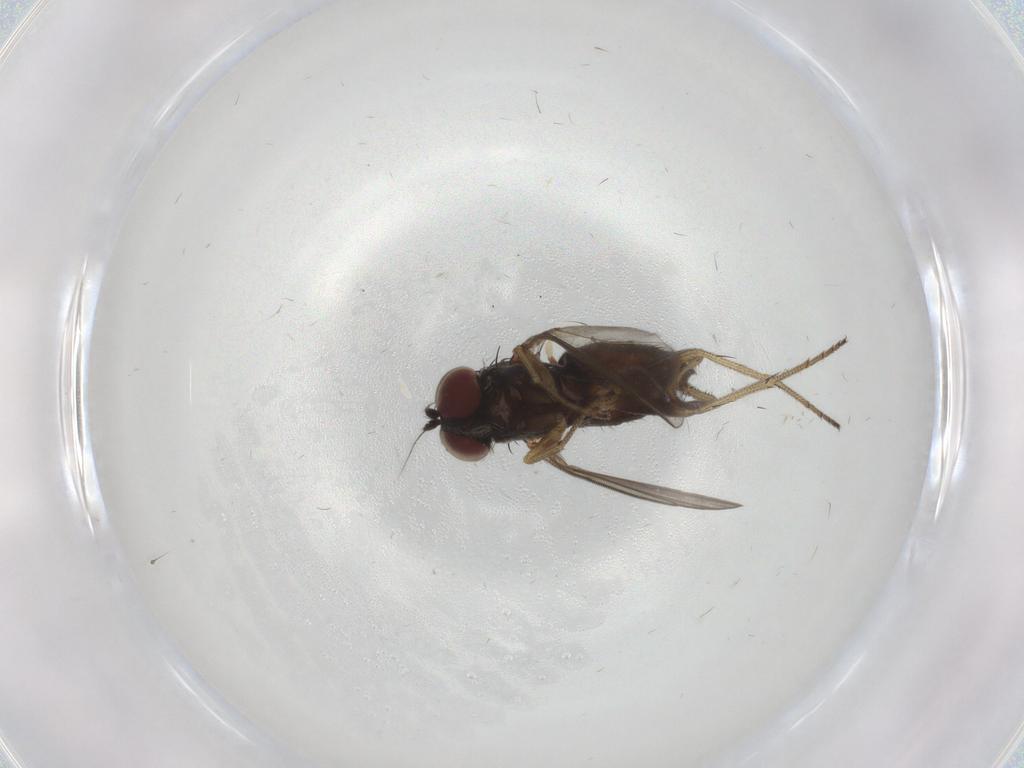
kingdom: Animalia
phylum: Arthropoda
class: Insecta
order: Diptera
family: Dolichopodidae
